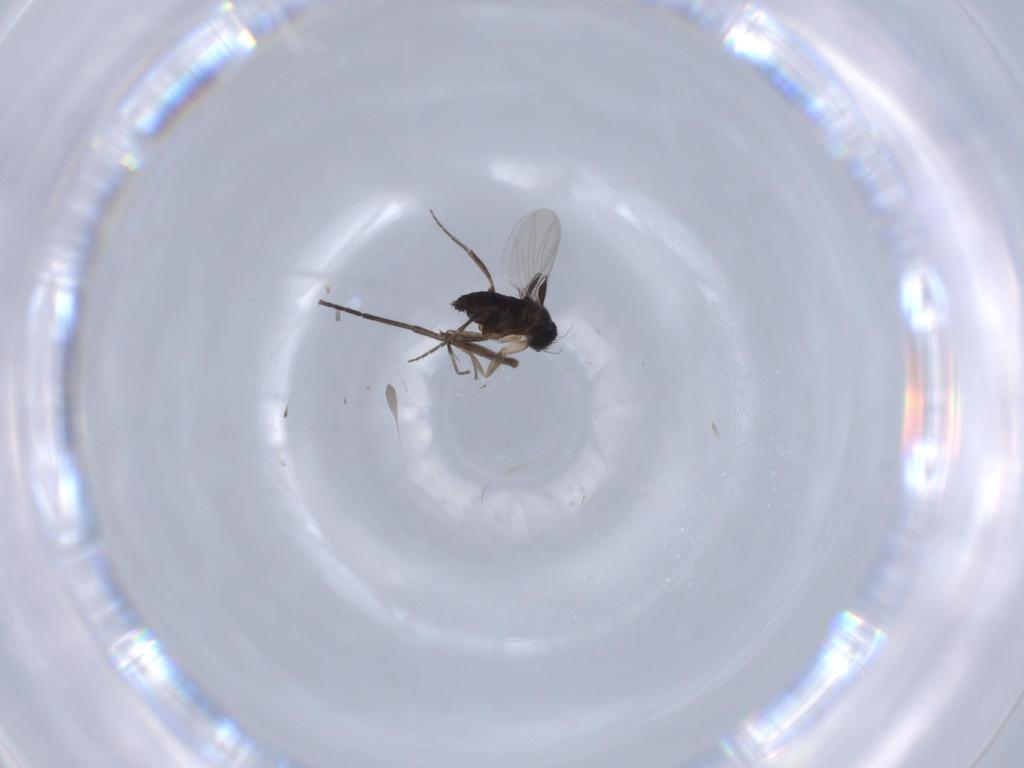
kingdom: Animalia
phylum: Arthropoda
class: Insecta
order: Diptera
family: Phoridae
